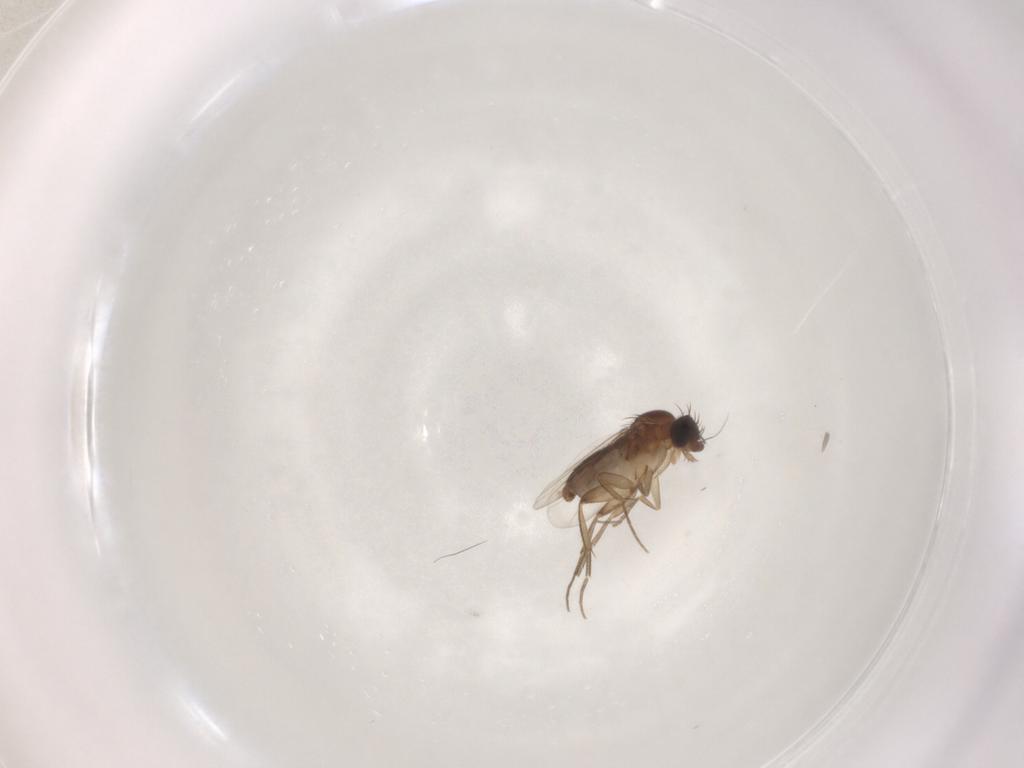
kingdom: Animalia
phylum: Arthropoda
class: Insecta
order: Diptera
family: Phoridae
